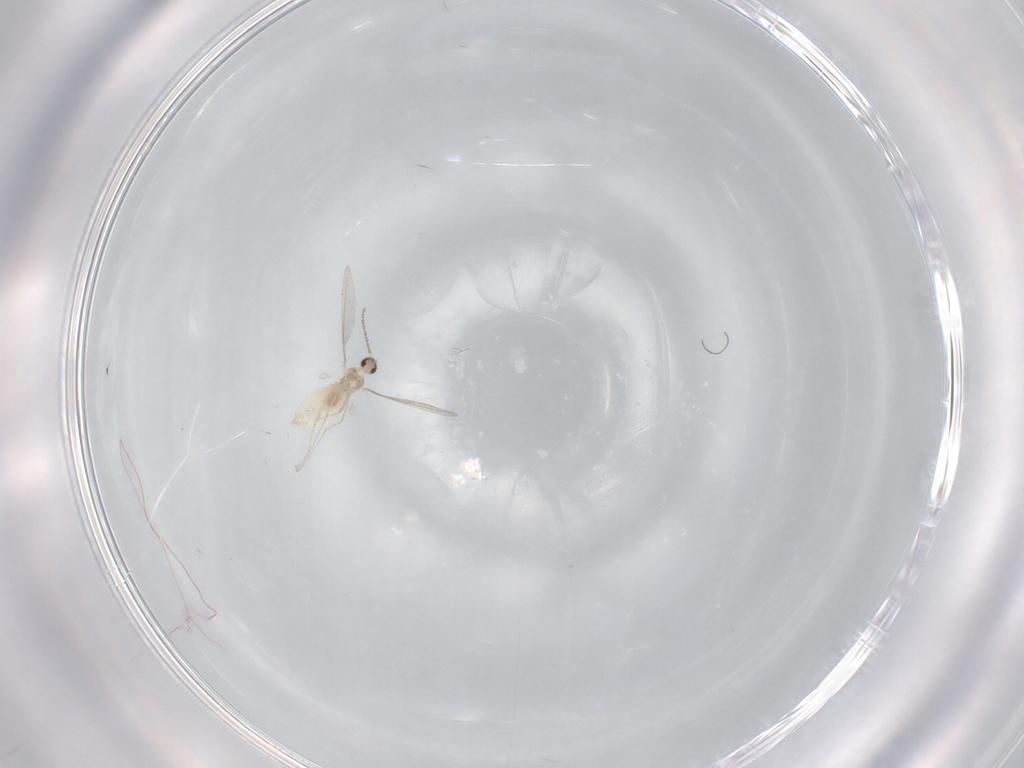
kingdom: Animalia
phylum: Arthropoda
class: Insecta
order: Diptera
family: Cecidomyiidae
